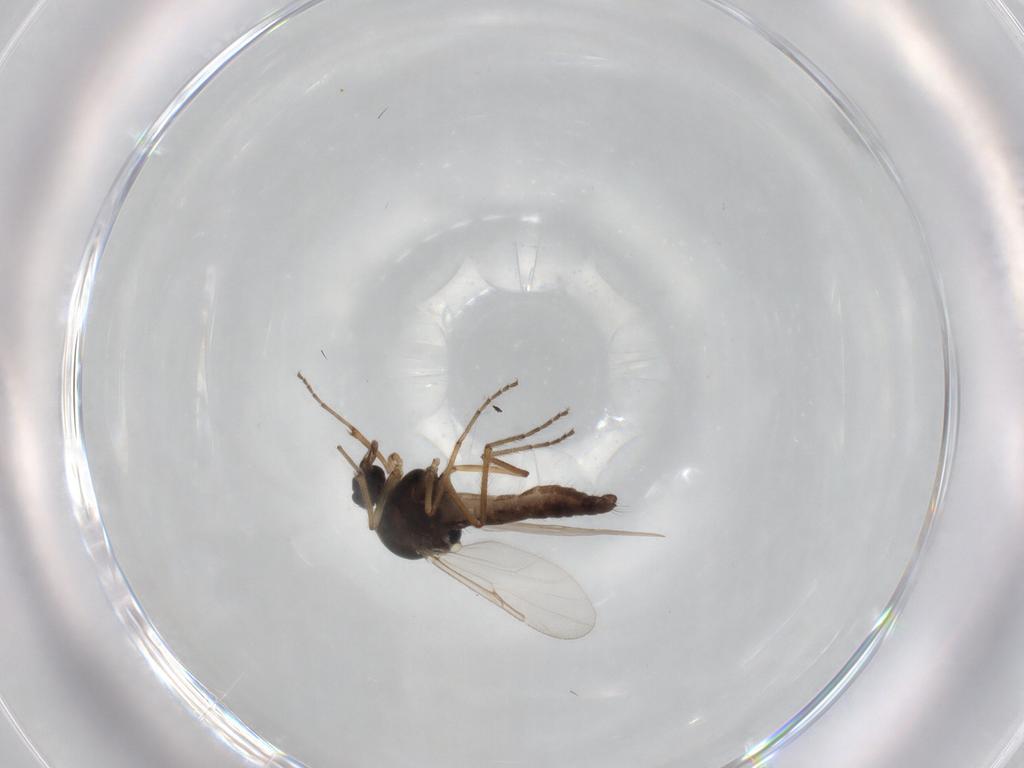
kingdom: Animalia
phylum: Arthropoda
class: Insecta
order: Diptera
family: Ceratopogonidae
